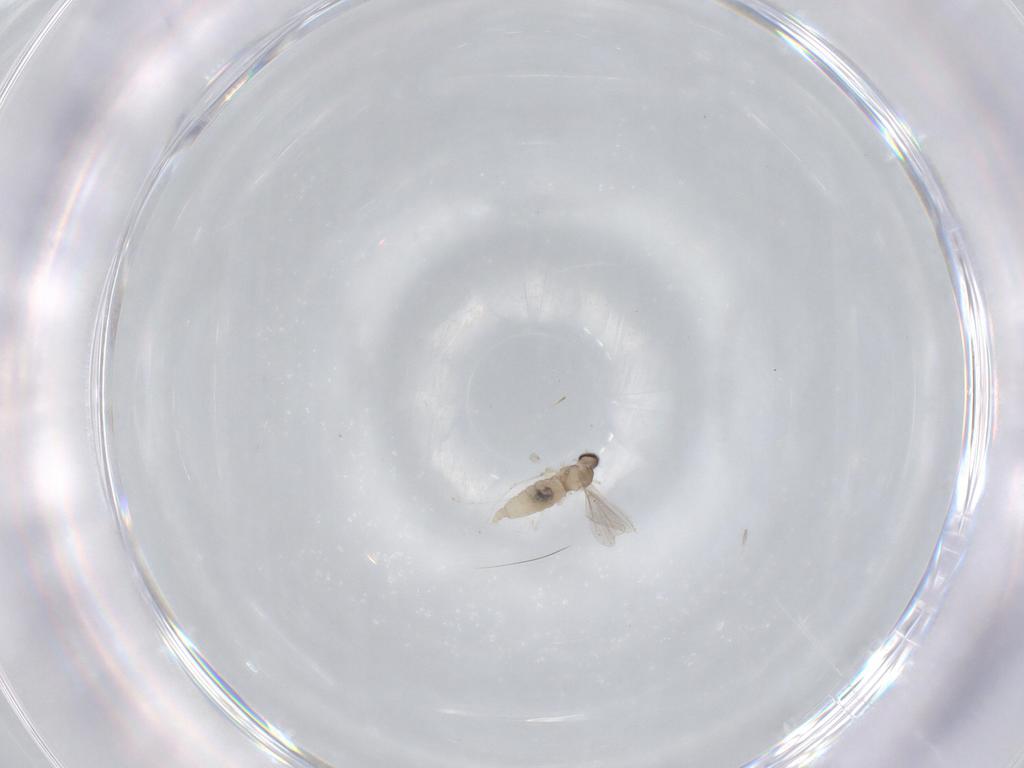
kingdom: Animalia
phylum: Arthropoda
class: Insecta
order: Diptera
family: Cecidomyiidae
